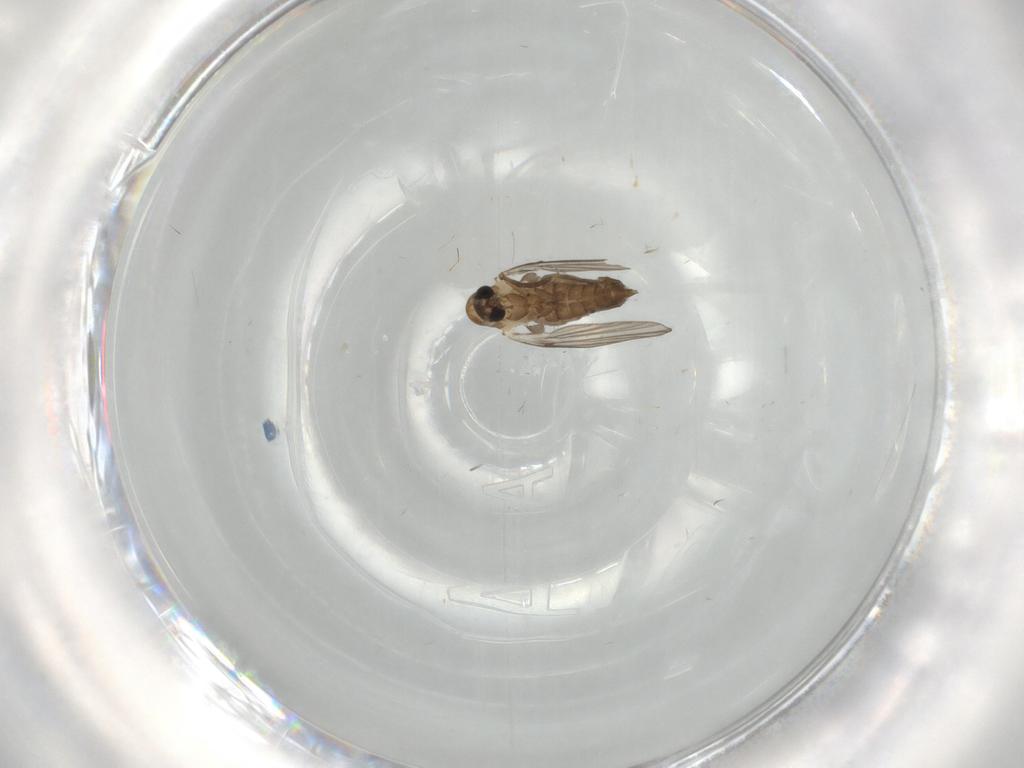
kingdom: Animalia
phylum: Arthropoda
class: Insecta
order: Diptera
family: Psychodidae
